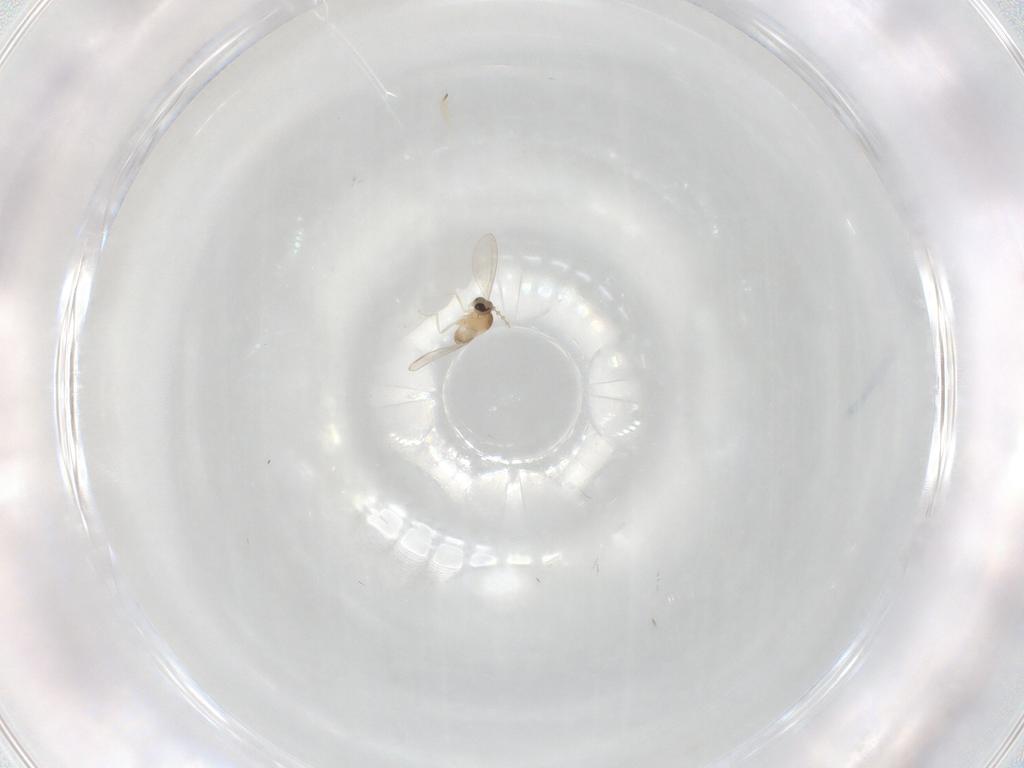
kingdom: Animalia
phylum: Arthropoda
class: Insecta
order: Diptera
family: Cecidomyiidae
